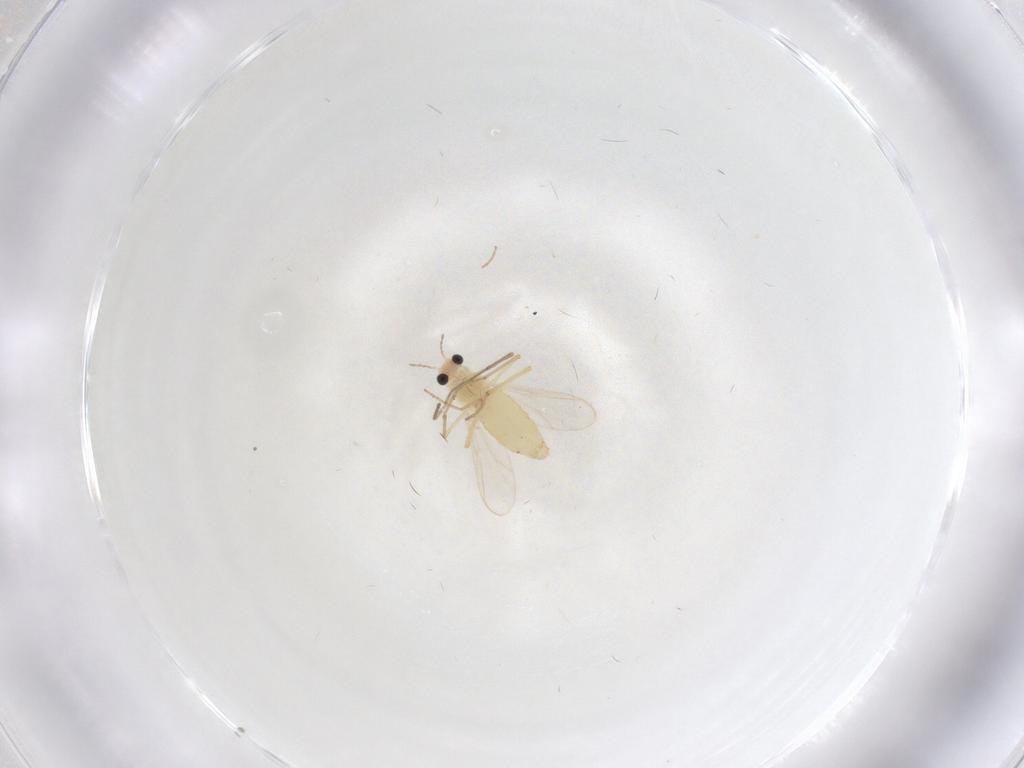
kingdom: Animalia
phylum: Arthropoda
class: Insecta
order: Diptera
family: Chironomidae
